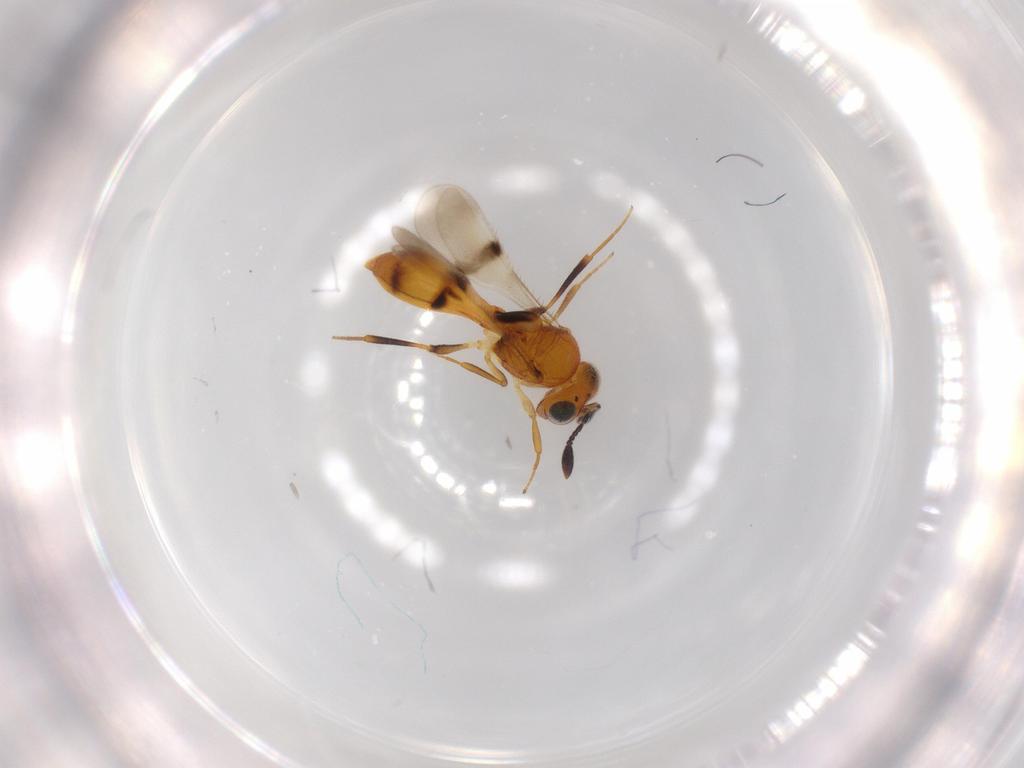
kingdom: Animalia
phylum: Arthropoda
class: Insecta
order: Hymenoptera
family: Scelionidae
